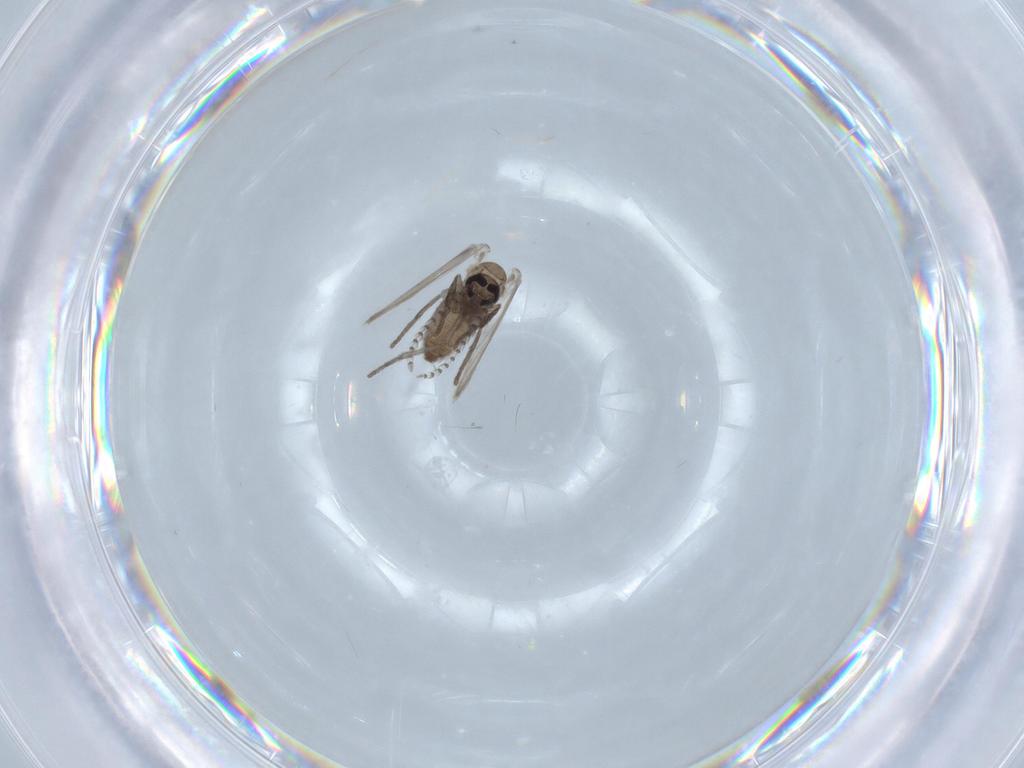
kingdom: Animalia
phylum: Arthropoda
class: Insecta
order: Diptera
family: Psychodidae
